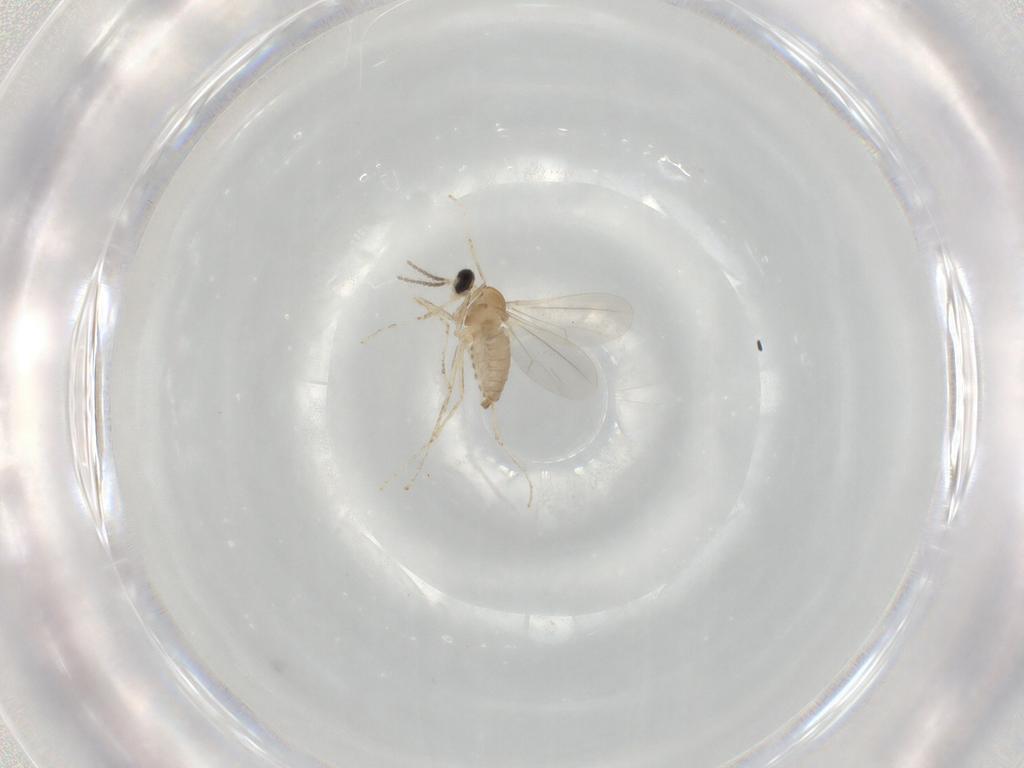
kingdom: Animalia
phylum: Arthropoda
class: Insecta
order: Diptera
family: Cecidomyiidae
